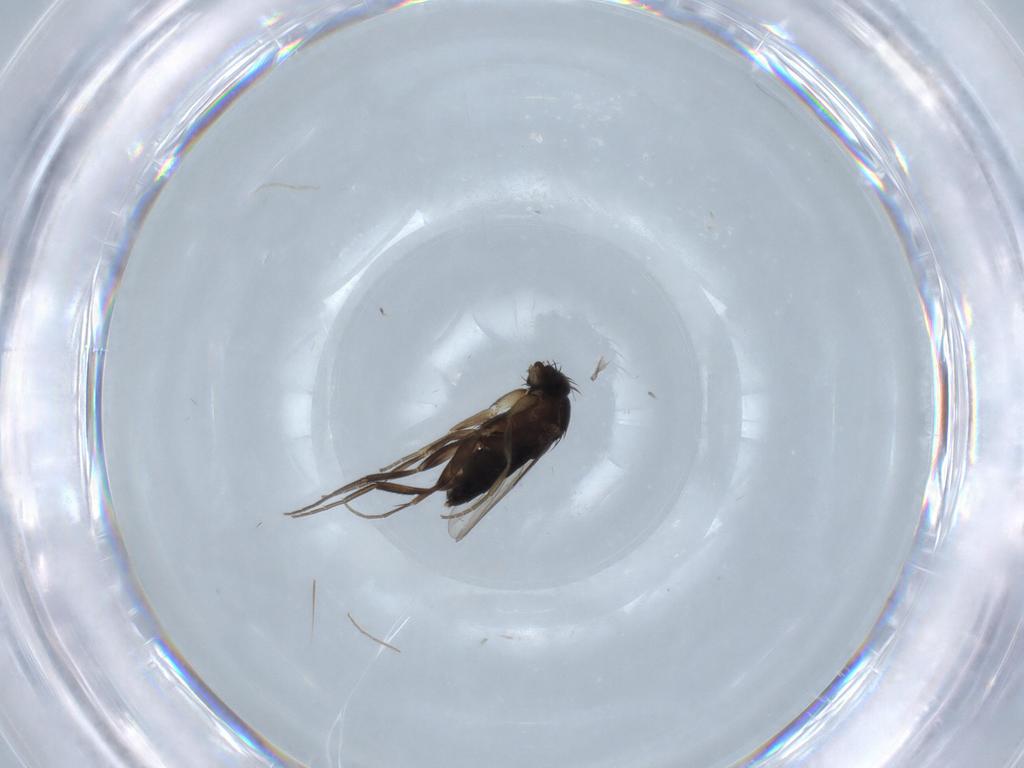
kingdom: Animalia
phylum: Arthropoda
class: Insecta
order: Diptera
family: Phoridae
